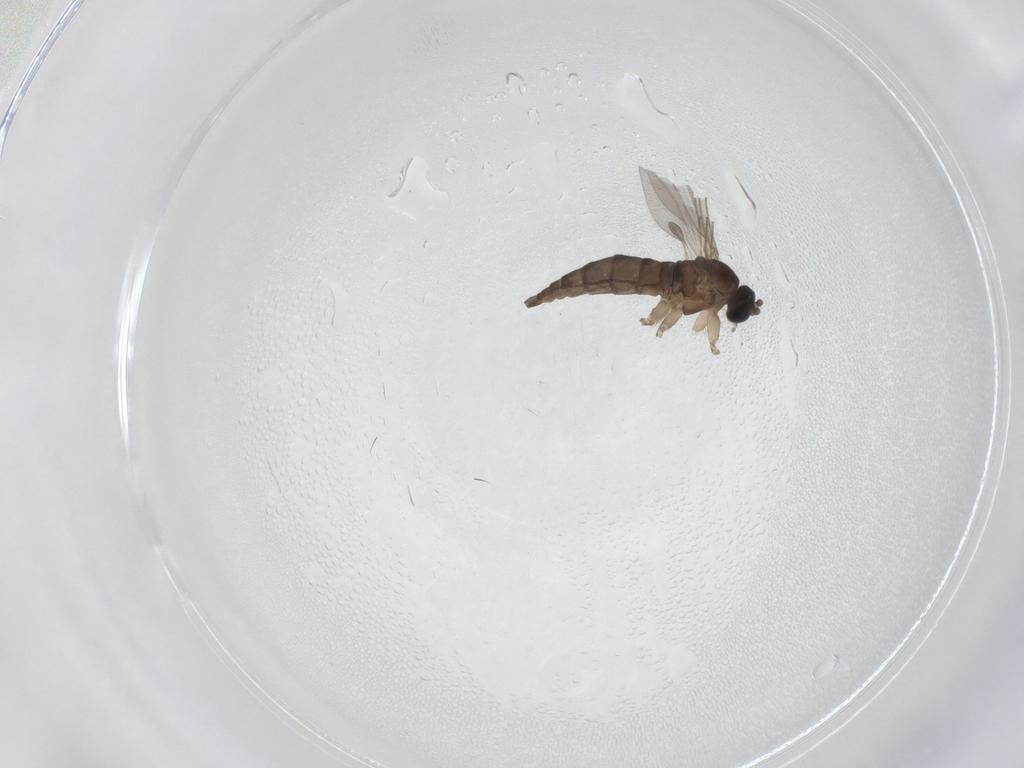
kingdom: Animalia
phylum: Arthropoda
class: Insecta
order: Diptera
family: Sciaridae
